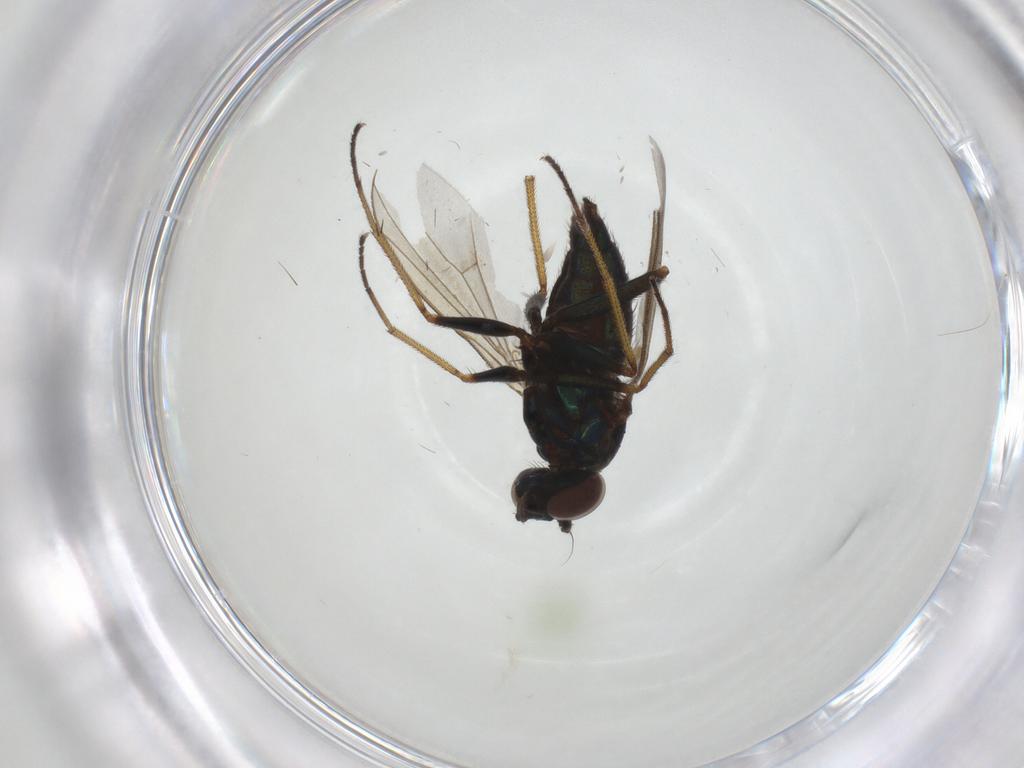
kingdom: Animalia
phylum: Arthropoda
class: Insecta
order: Diptera
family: Dolichopodidae
